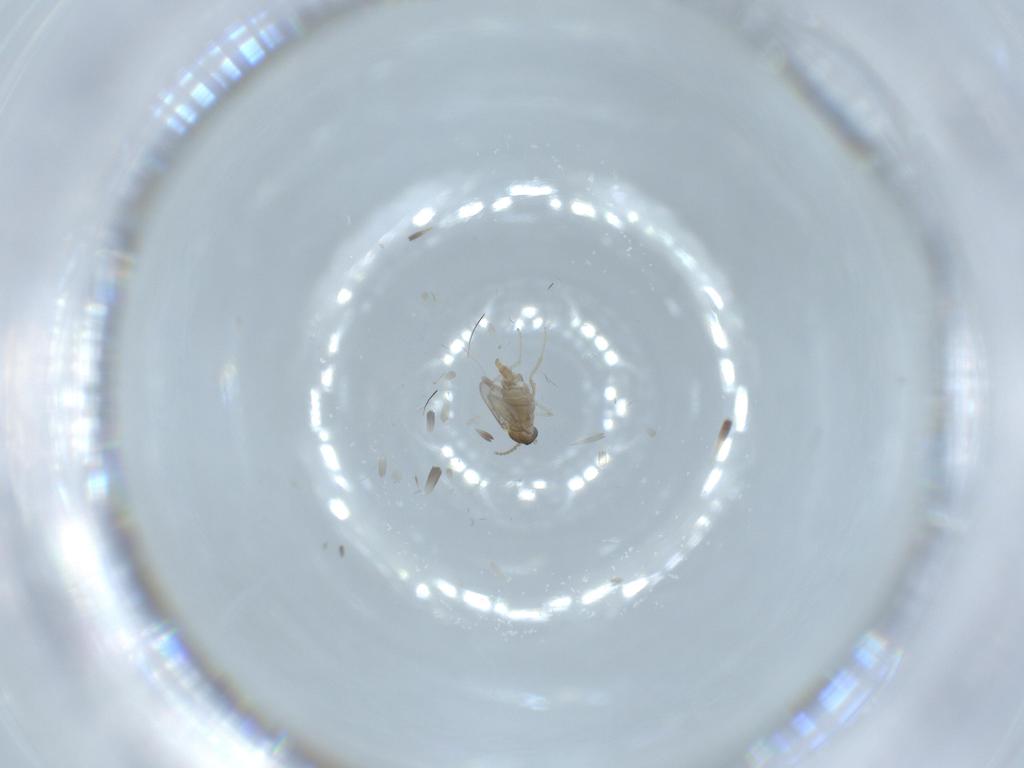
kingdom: Animalia
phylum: Arthropoda
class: Insecta
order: Diptera
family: Cecidomyiidae
